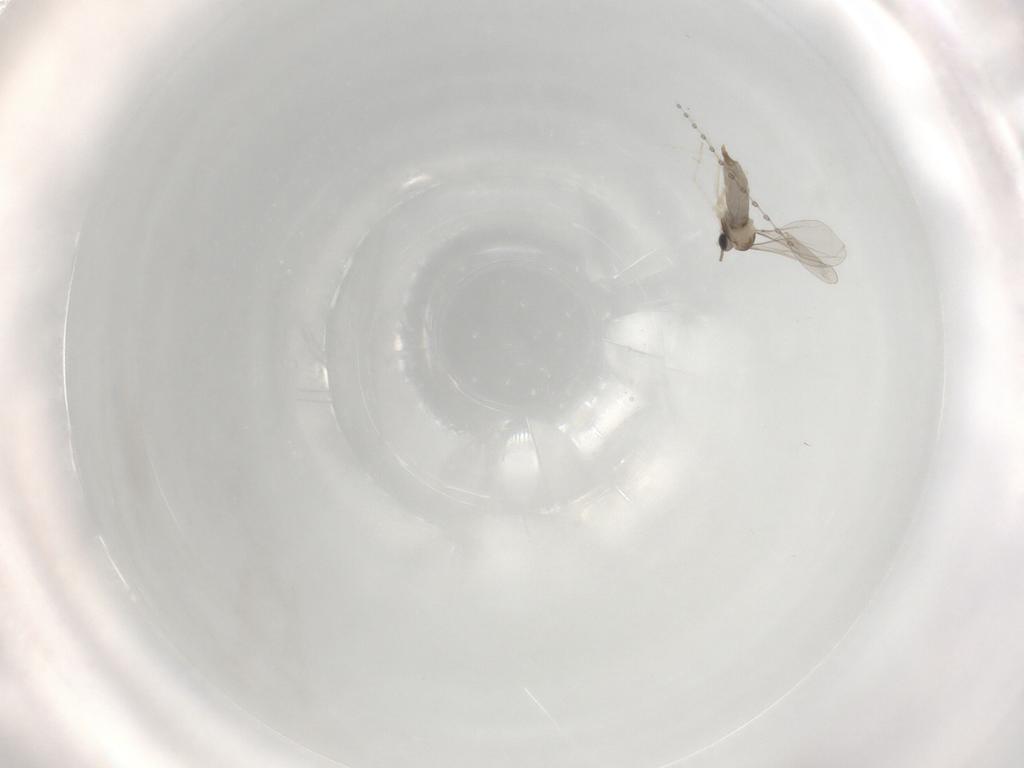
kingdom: Animalia
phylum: Arthropoda
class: Insecta
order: Diptera
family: Cecidomyiidae
